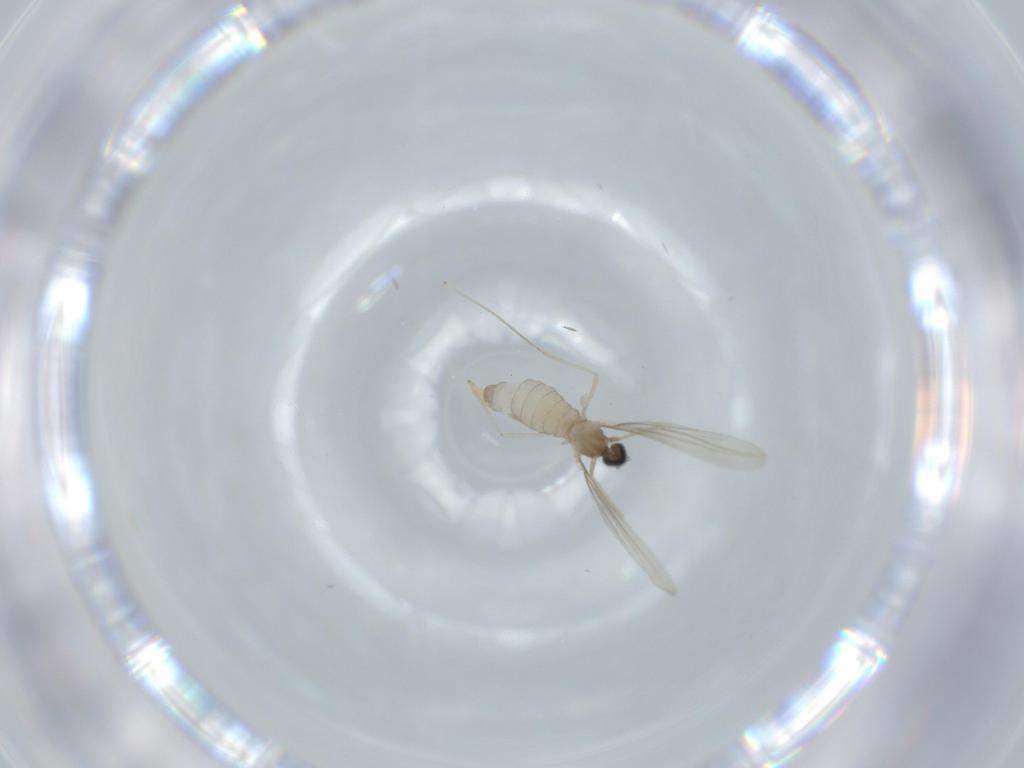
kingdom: Animalia
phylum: Arthropoda
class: Insecta
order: Diptera
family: Cecidomyiidae
